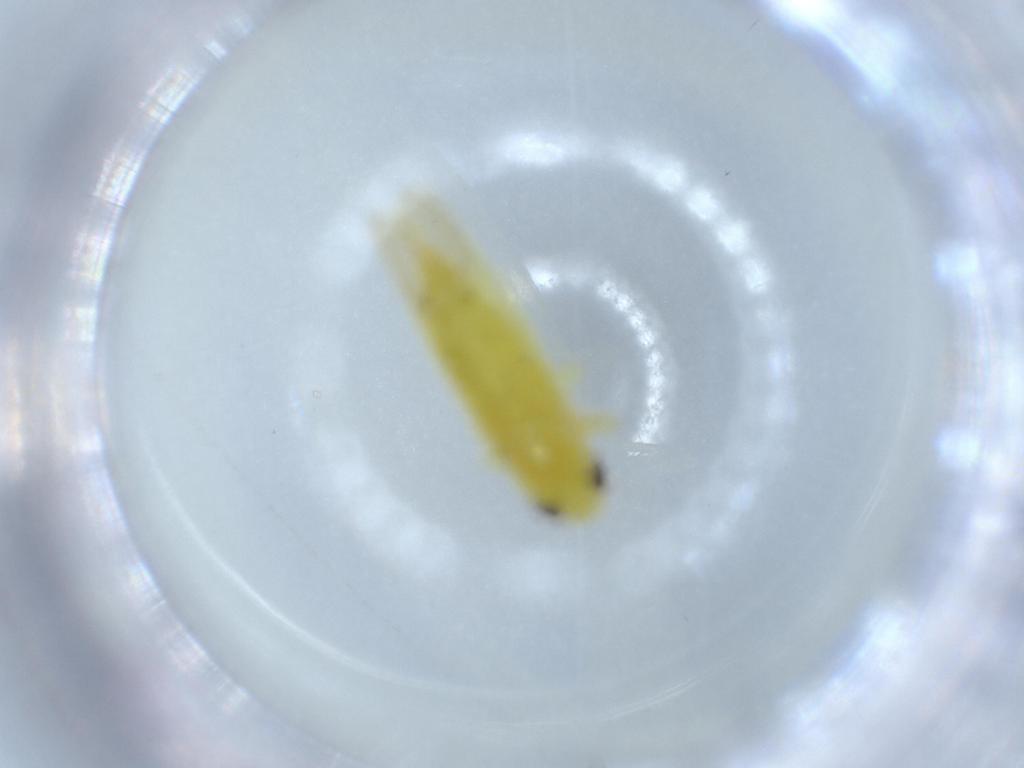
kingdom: Animalia
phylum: Arthropoda
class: Insecta
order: Hemiptera
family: Cicadellidae
